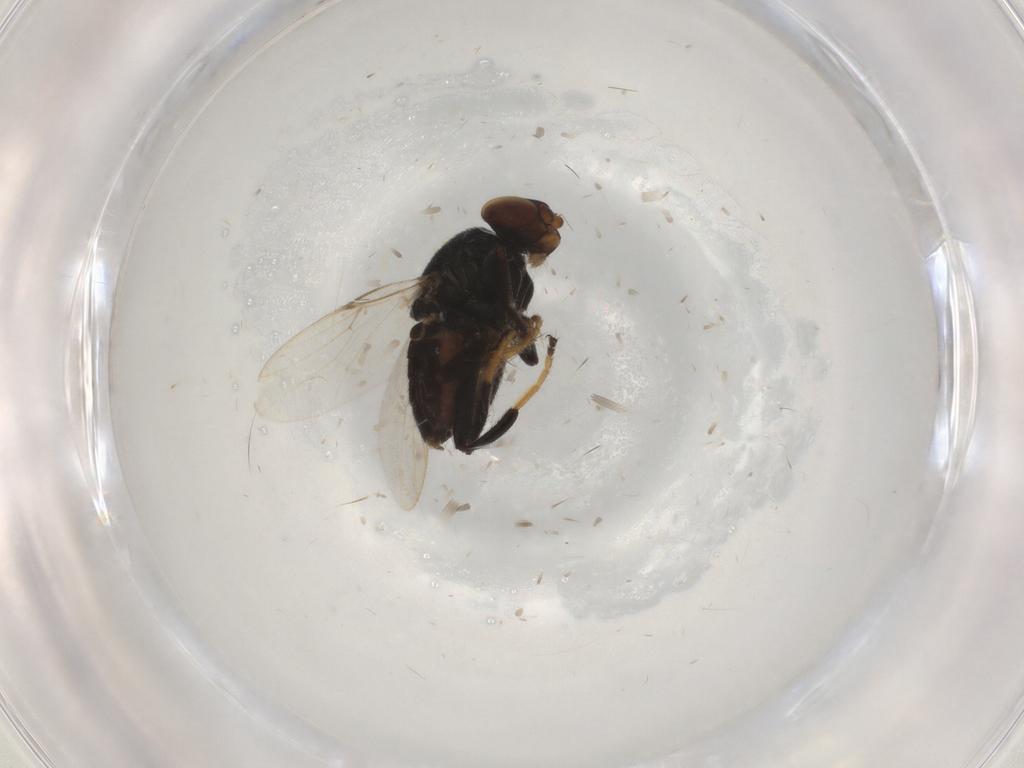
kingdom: Animalia
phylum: Arthropoda
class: Insecta
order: Diptera
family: Chloropidae
